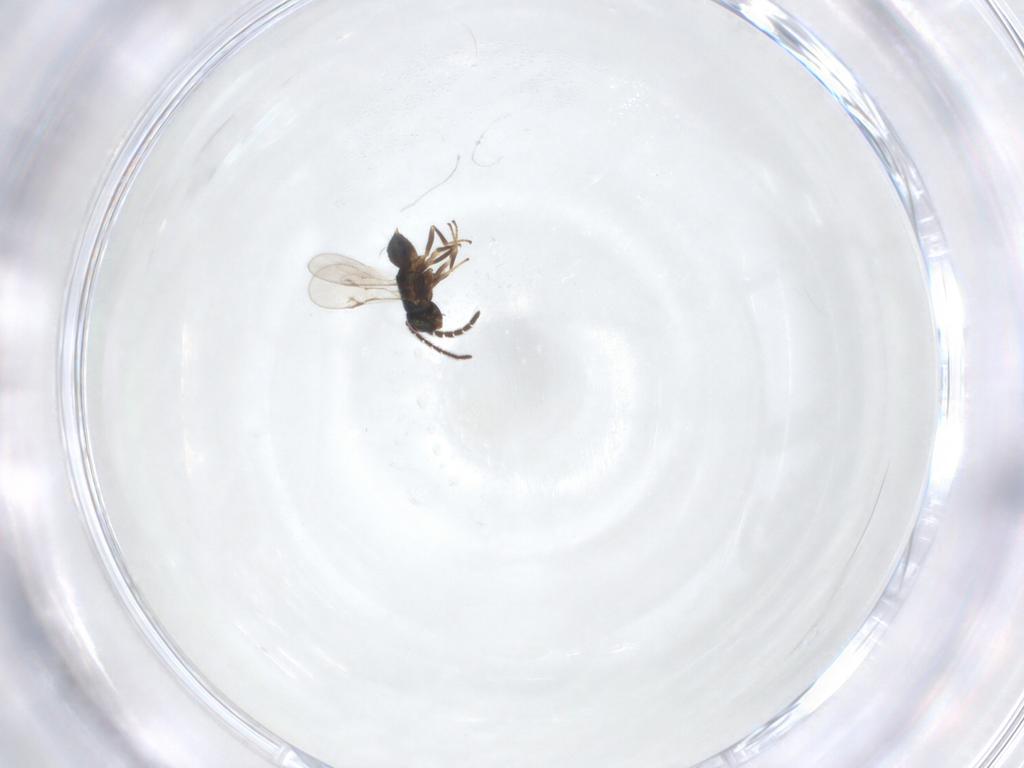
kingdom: Animalia
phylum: Arthropoda
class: Insecta
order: Hymenoptera
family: Encyrtidae
